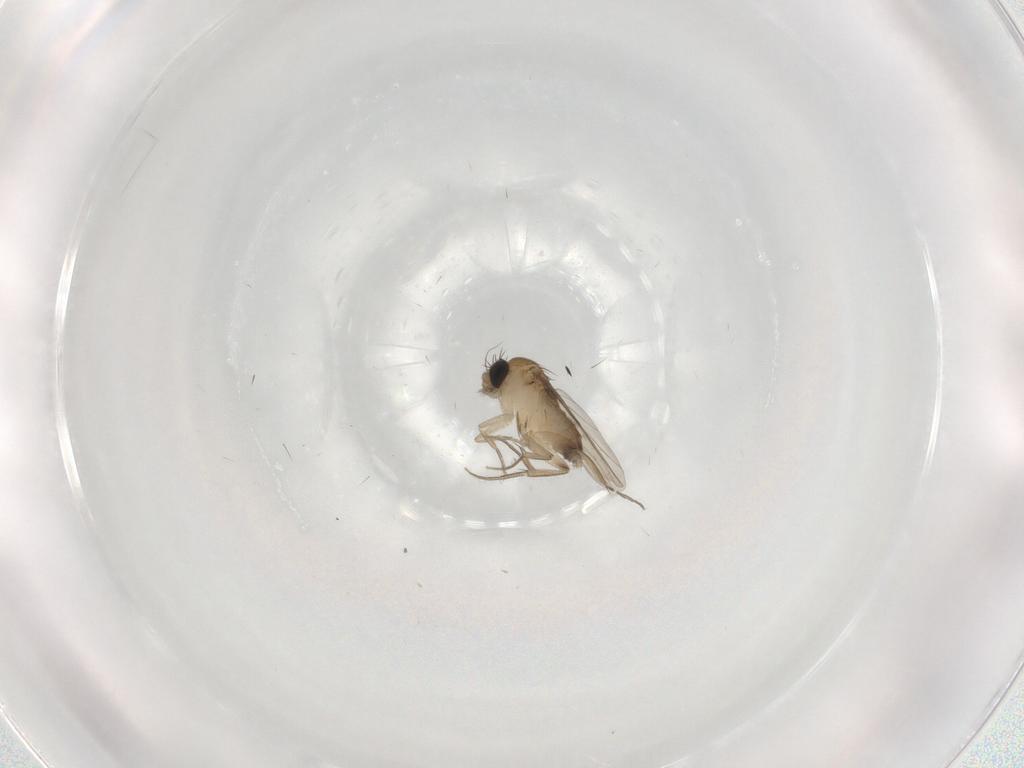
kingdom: Animalia
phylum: Arthropoda
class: Insecta
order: Diptera
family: Phoridae
